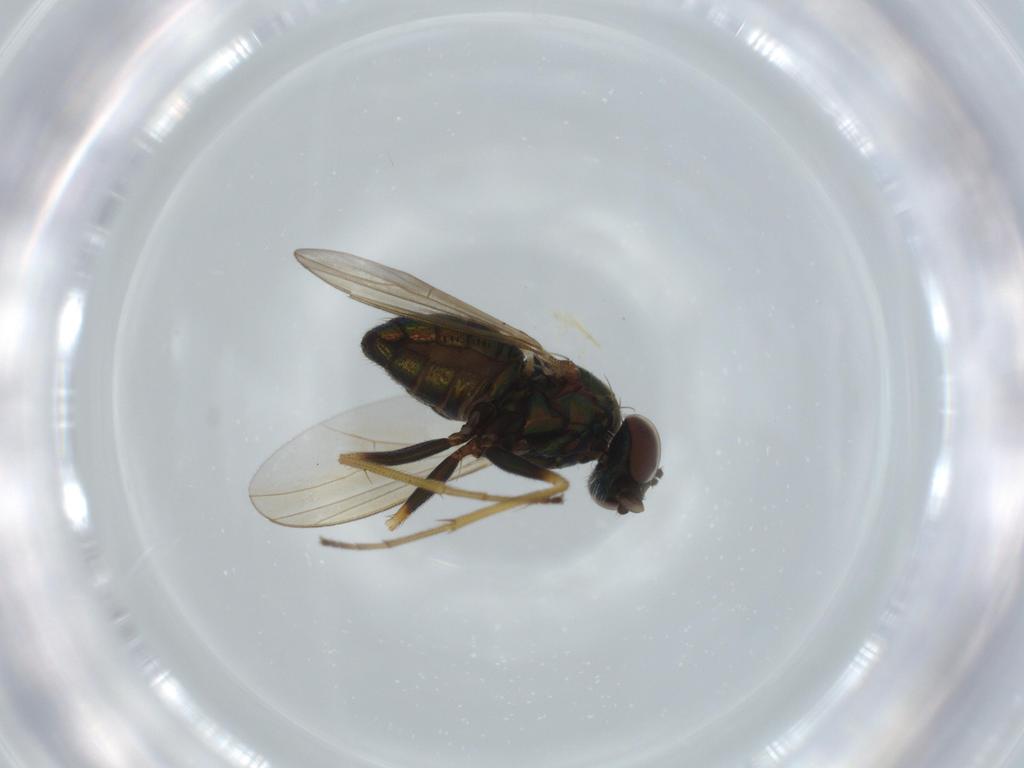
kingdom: Animalia
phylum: Arthropoda
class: Insecta
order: Diptera
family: Dolichopodidae
